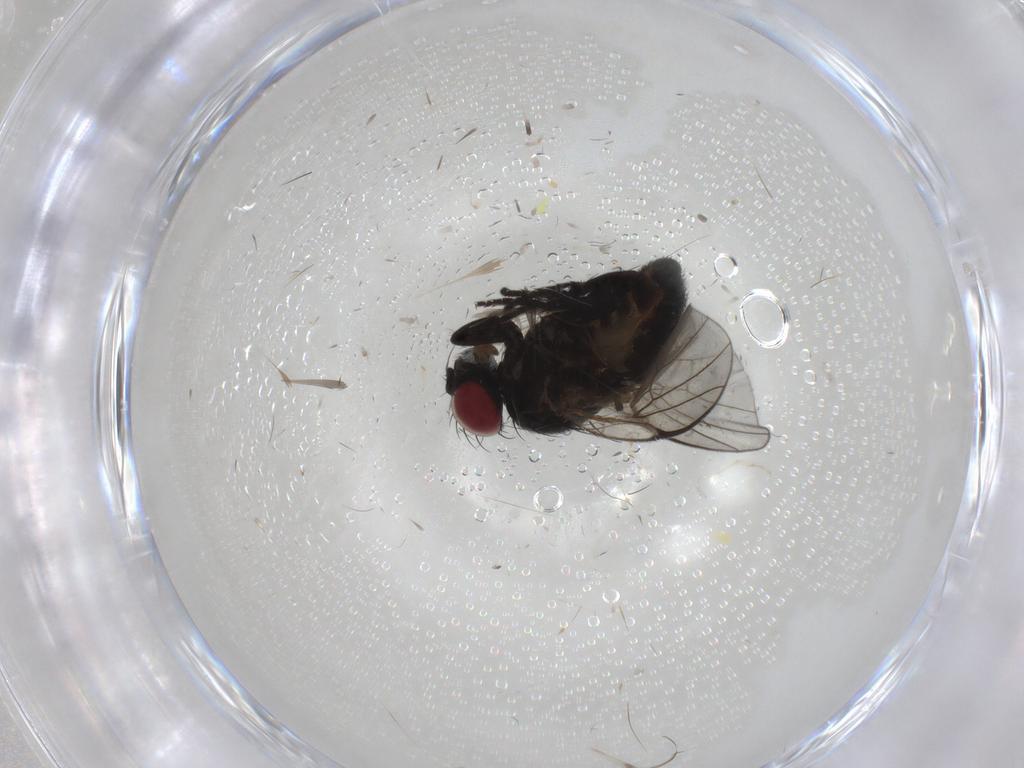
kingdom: Animalia
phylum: Arthropoda
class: Insecta
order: Diptera
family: Agromyzidae
